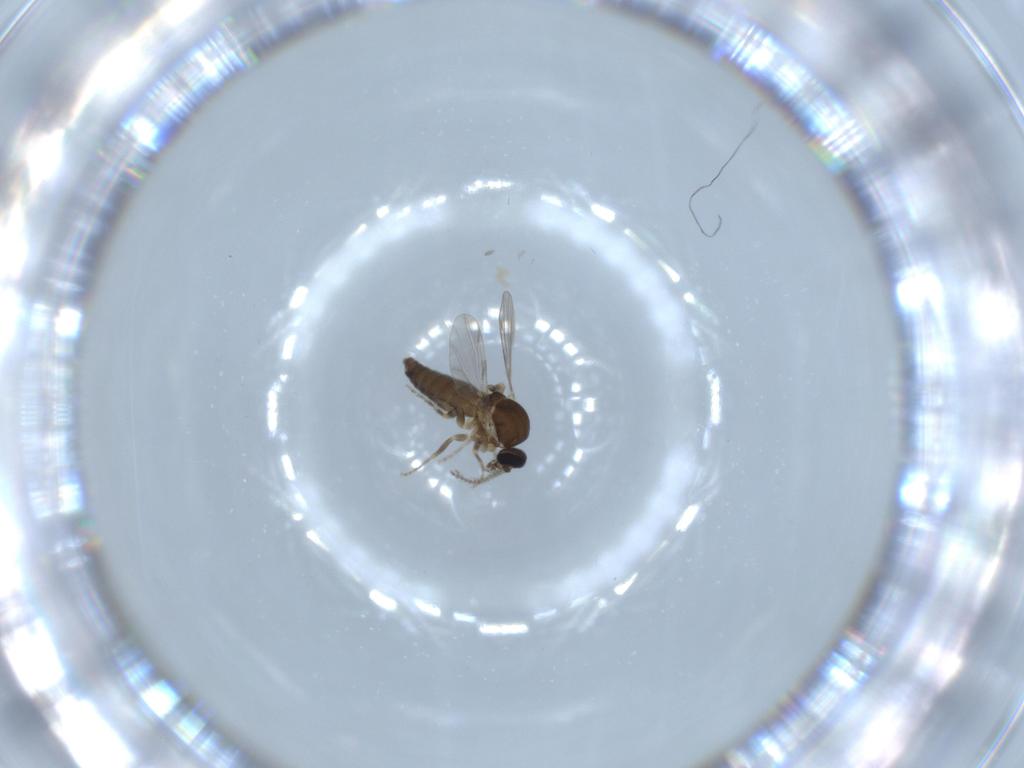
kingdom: Animalia
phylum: Arthropoda
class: Insecta
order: Diptera
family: Ceratopogonidae
